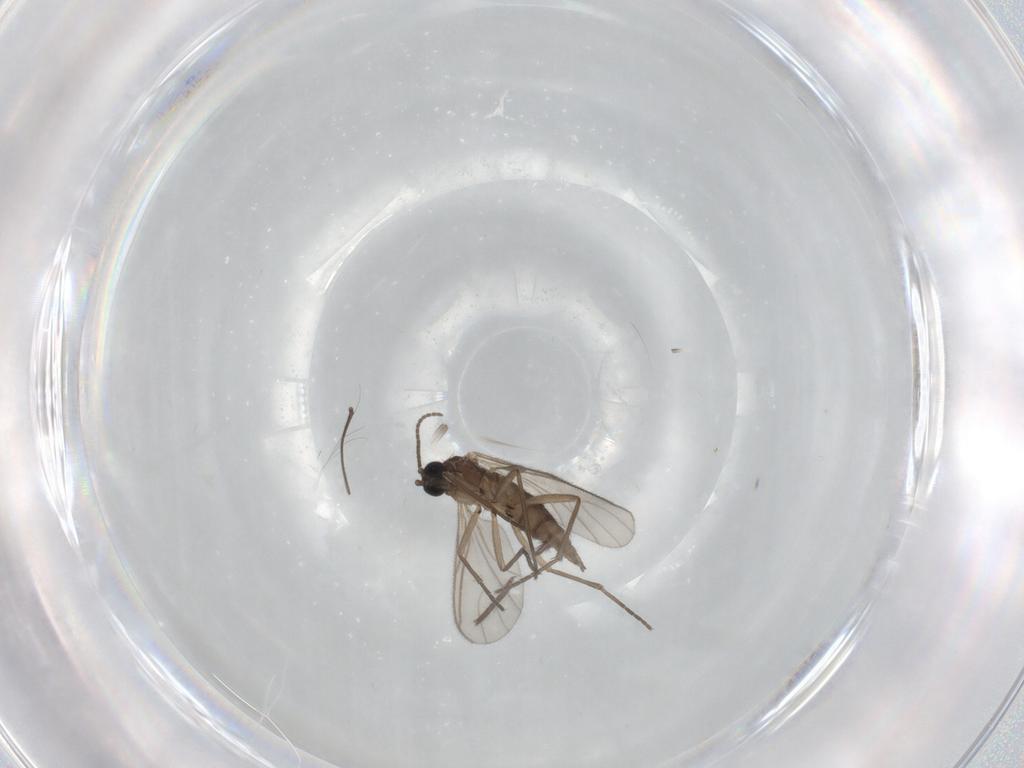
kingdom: Animalia
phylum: Arthropoda
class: Insecta
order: Diptera
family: Sciaridae
